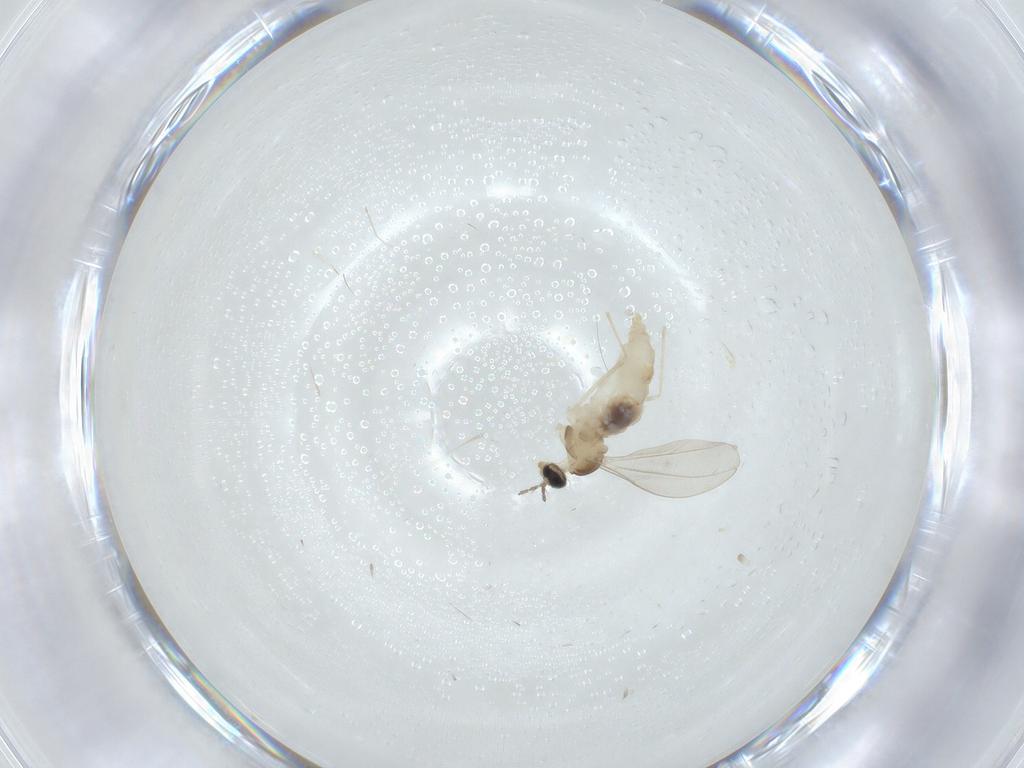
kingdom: Animalia
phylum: Arthropoda
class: Insecta
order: Diptera
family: Cecidomyiidae
